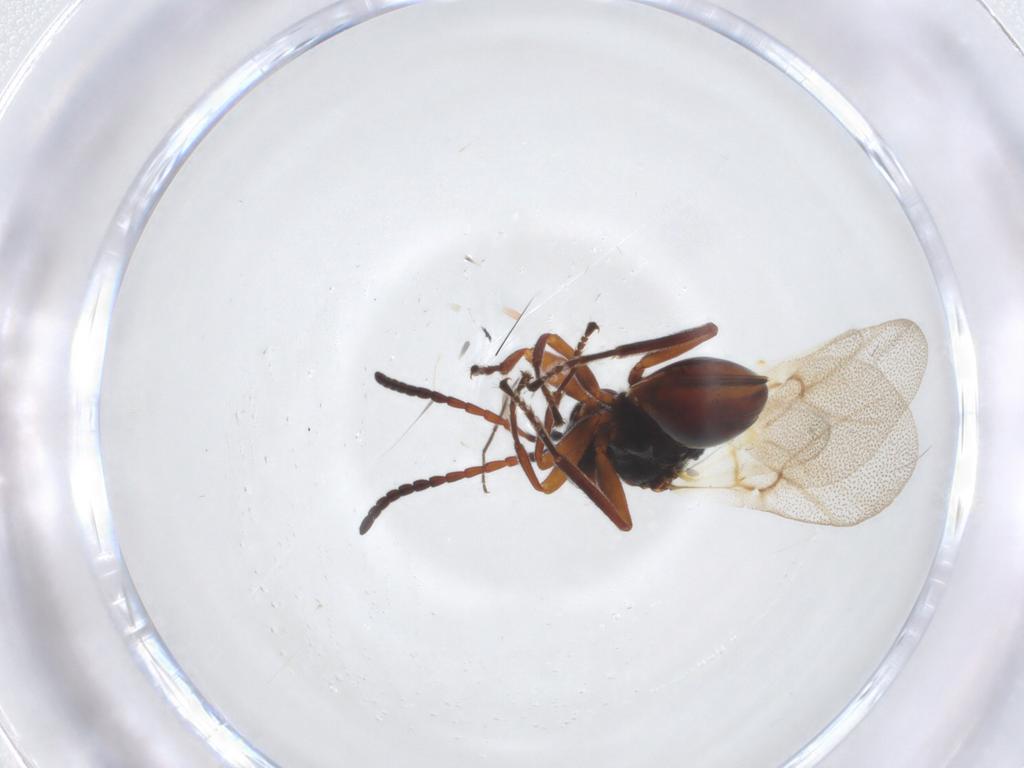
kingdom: Animalia
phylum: Arthropoda
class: Insecta
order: Hymenoptera
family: Cynipidae
